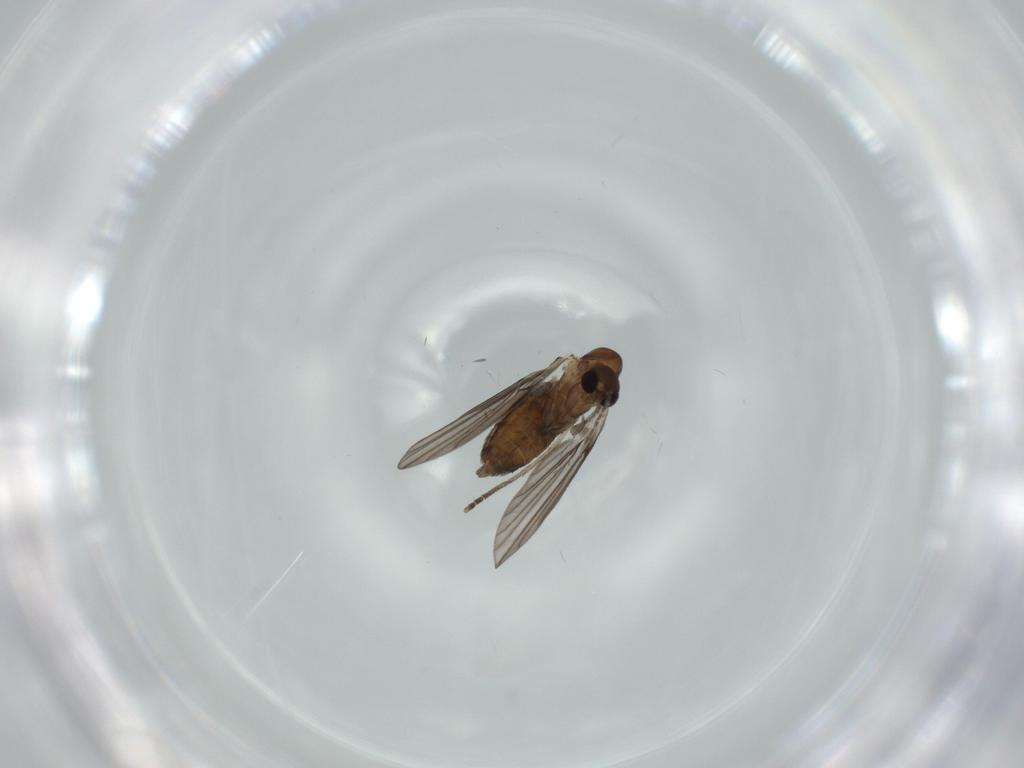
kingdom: Animalia
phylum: Arthropoda
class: Insecta
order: Diptera
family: Psychodidae
